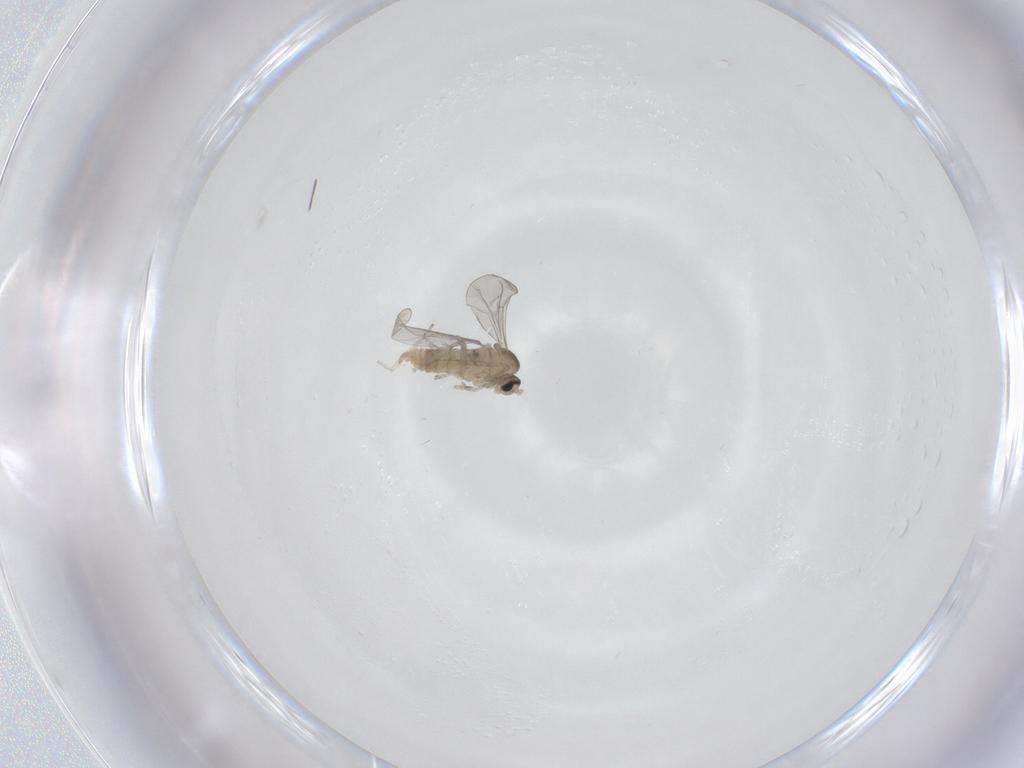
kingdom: Animalia
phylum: Arthropoda
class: Insecta
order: Diptera
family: Cecidomyiidae
